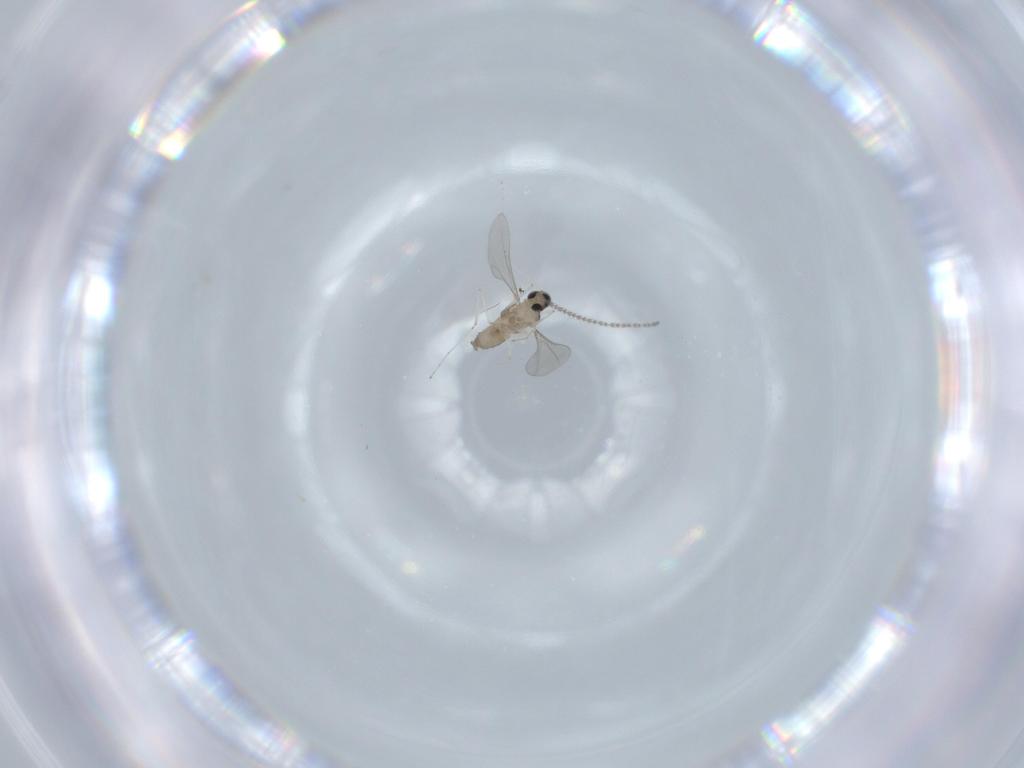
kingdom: Animalia
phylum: Arthropoda
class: Insecta
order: Diptera
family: Cecidomyiidae
